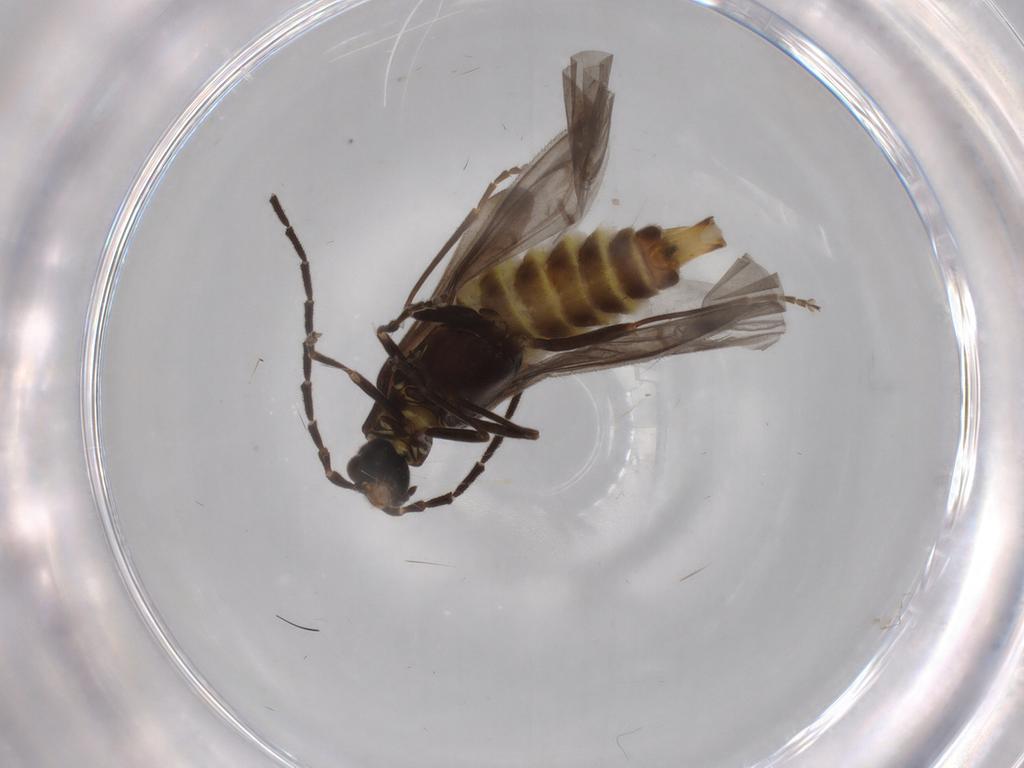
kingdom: Animalia
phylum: Arthropoda
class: Insecta
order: Coleoptera
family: Cantharidae
